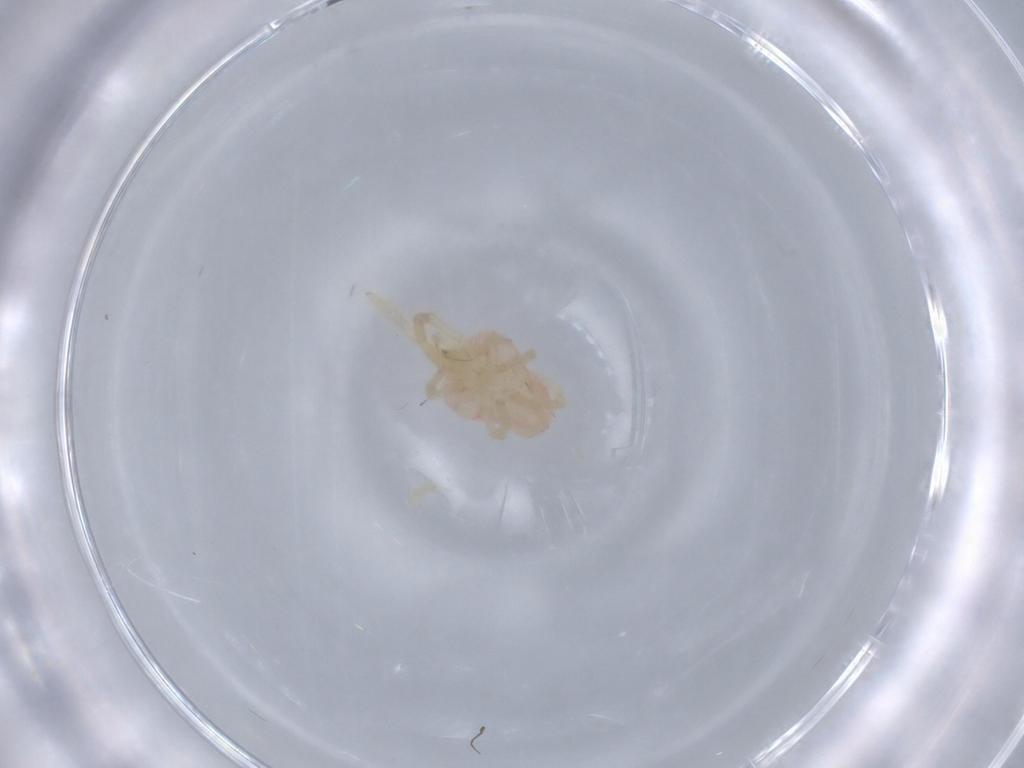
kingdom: Animalia
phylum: Arthropoda
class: Arachnida
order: Trombidiformes
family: Trombidiidae
